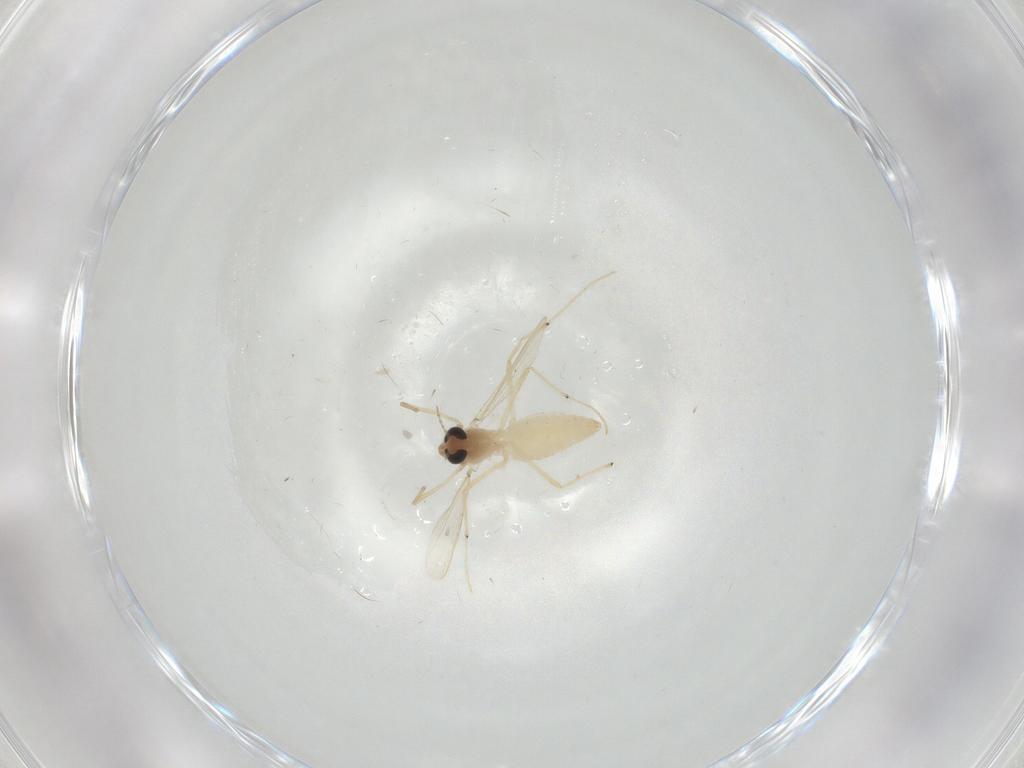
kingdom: Animalia
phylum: Arthropoda
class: Insecta
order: Diptera
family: Chironomidae
